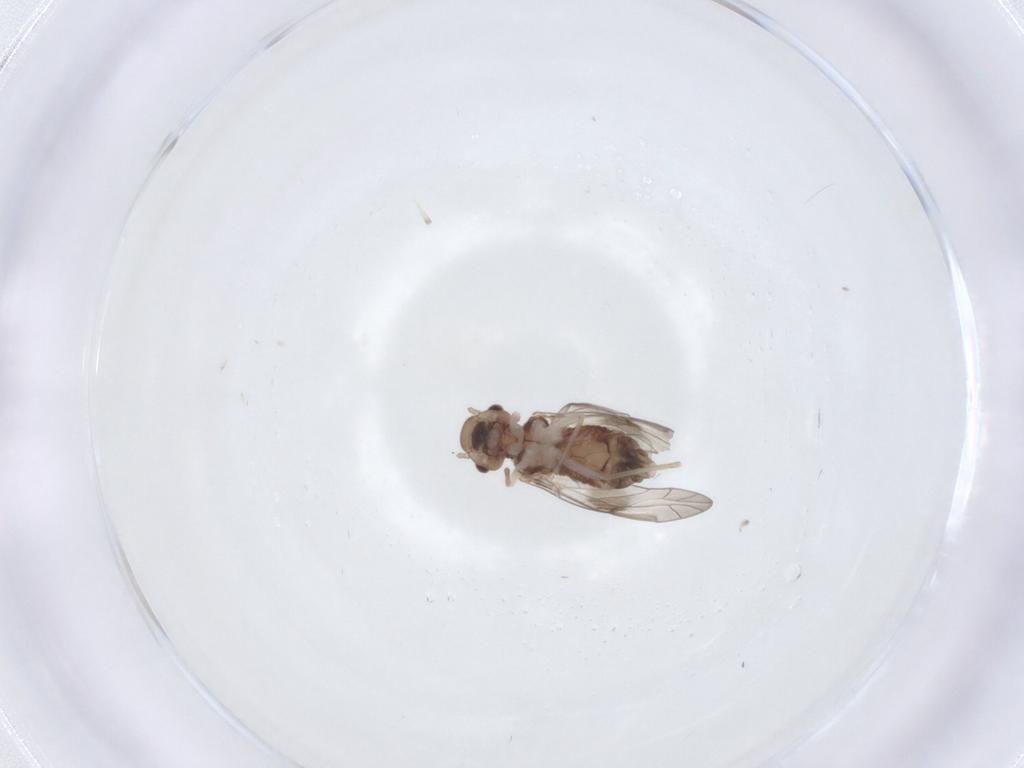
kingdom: Animalia
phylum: Arthropoda
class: Insecta
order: Psocodea
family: Peripsocidae
